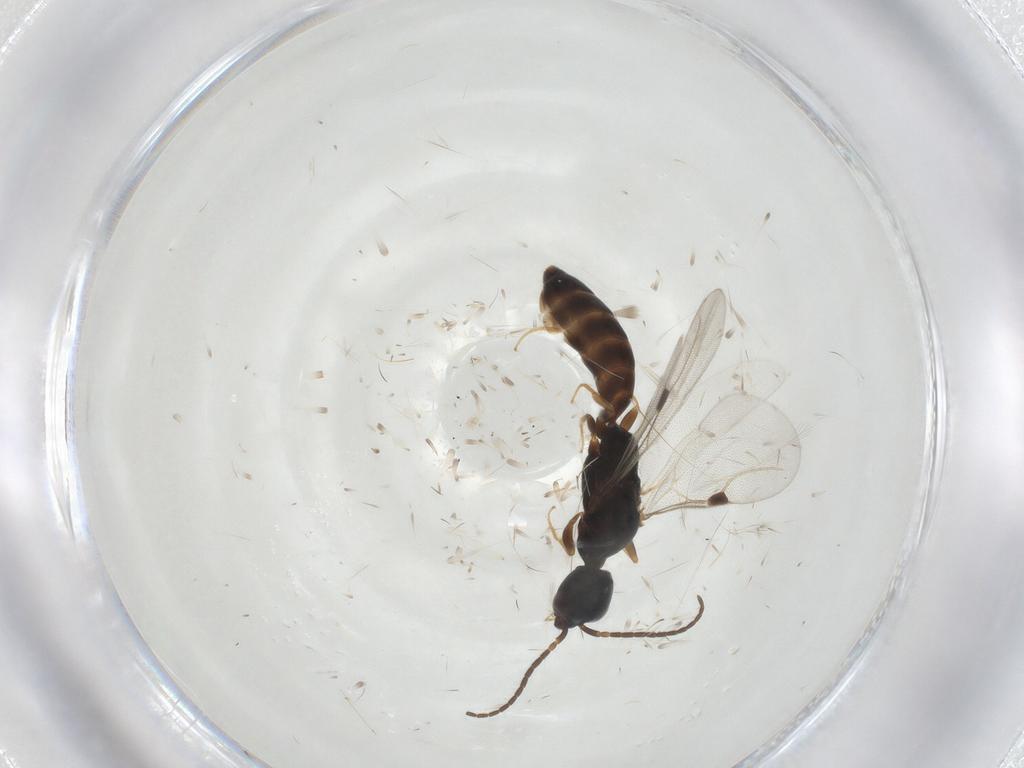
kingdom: Animalia
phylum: Arthropoda
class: Insecta
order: Hymenoptera
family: Bethylidae
